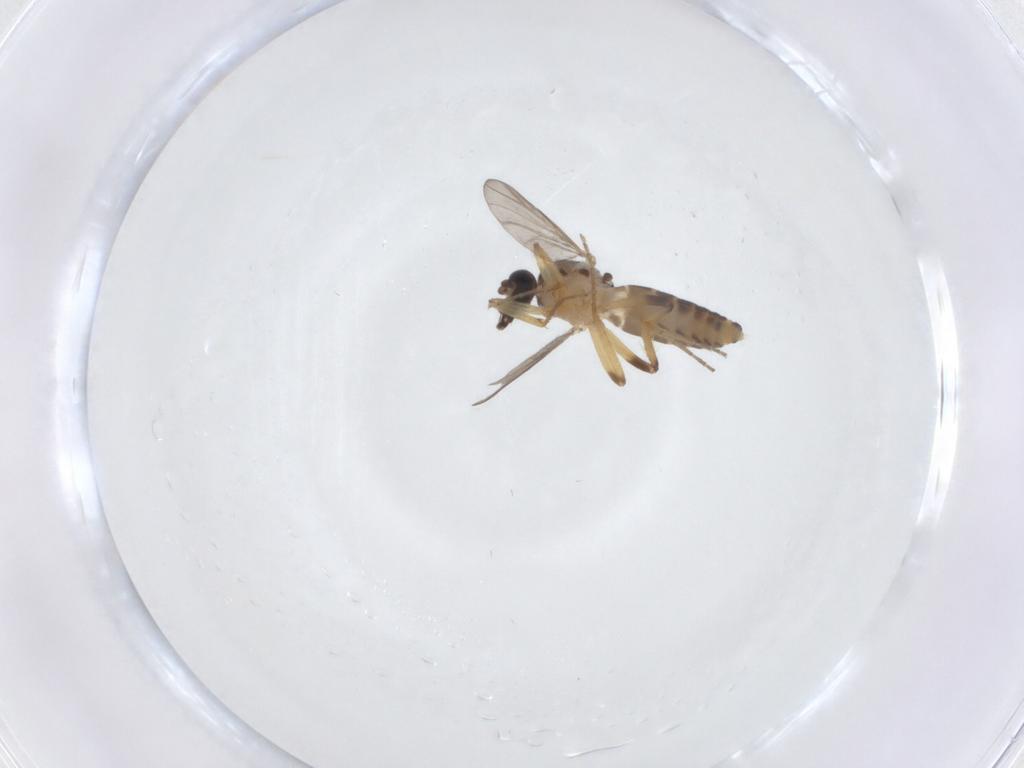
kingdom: Animalia
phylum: Arthropoda
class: Insecta
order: Diptera
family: Ceratopogonidae
